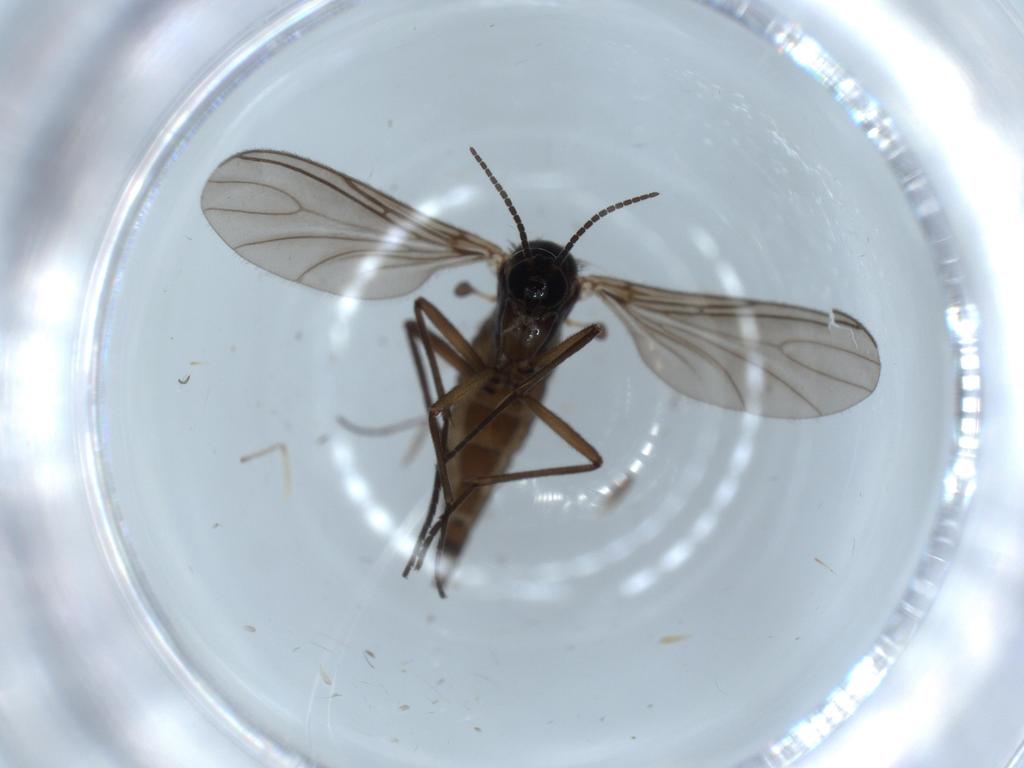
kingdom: Animalia
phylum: Arthropoda
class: Insecta
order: Diptera
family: Sciaridae
